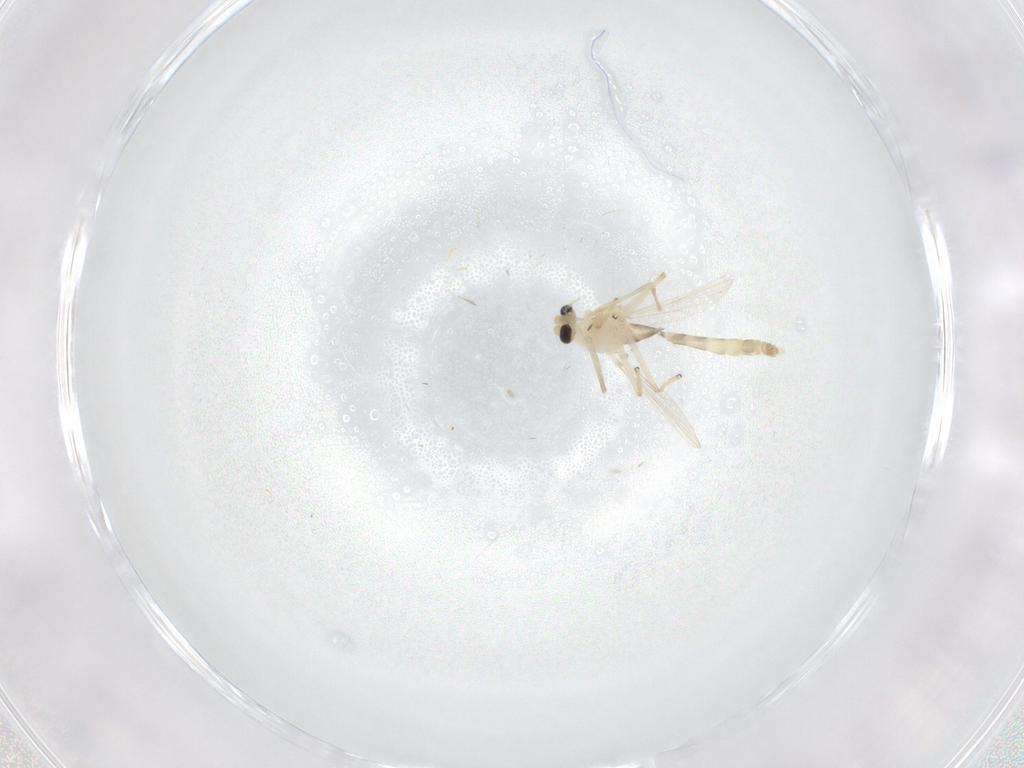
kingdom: Animalia
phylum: Arthropoda
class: Insecta
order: Diptera
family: Chironomidae
